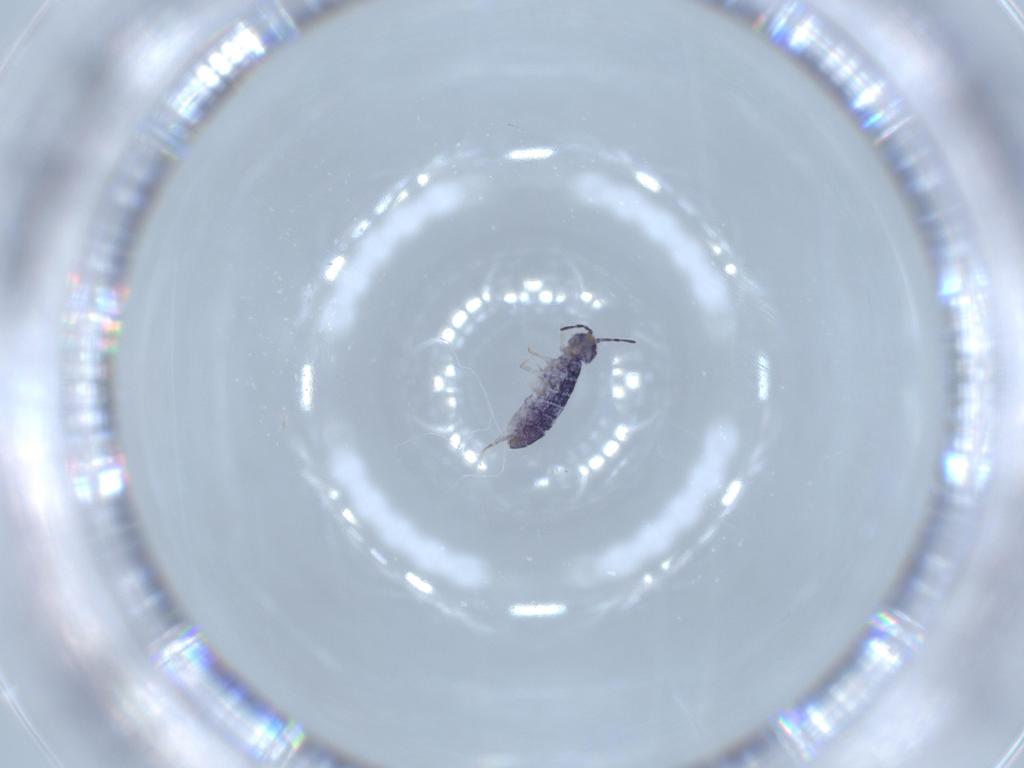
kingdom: Animalia
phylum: Arthropoda
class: Collembola
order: Entomobryomorpha
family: Isotomidae
